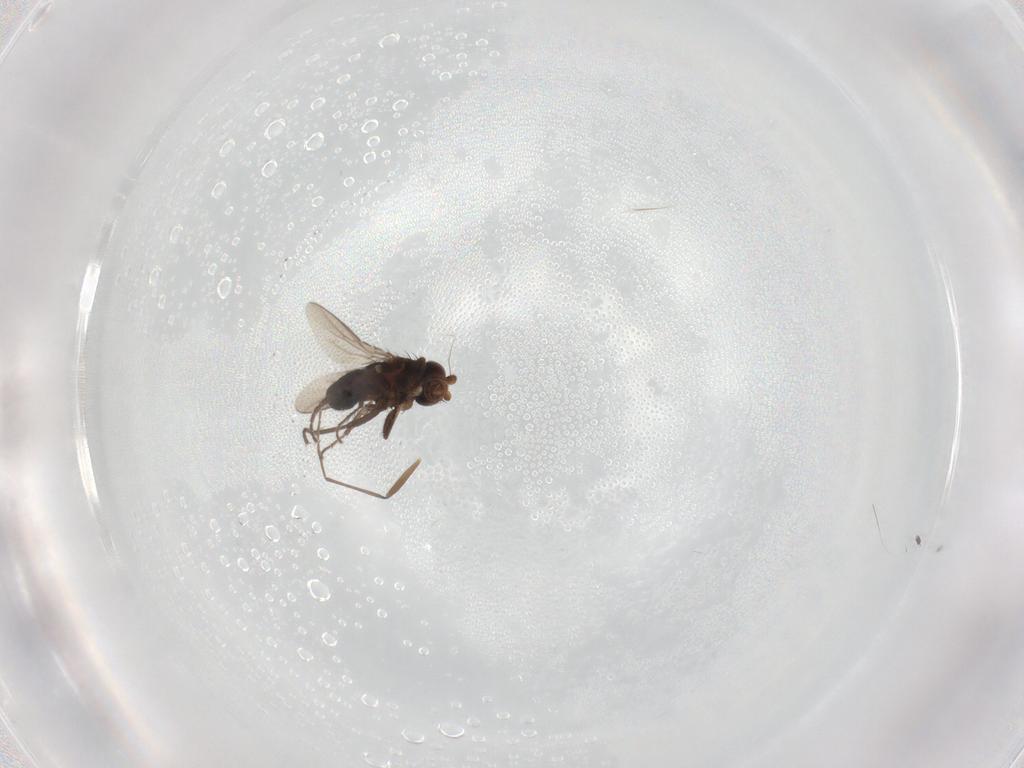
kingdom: Animalia
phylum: Arthropoda
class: Insecta
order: Diptera
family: Sphaeroceridae
